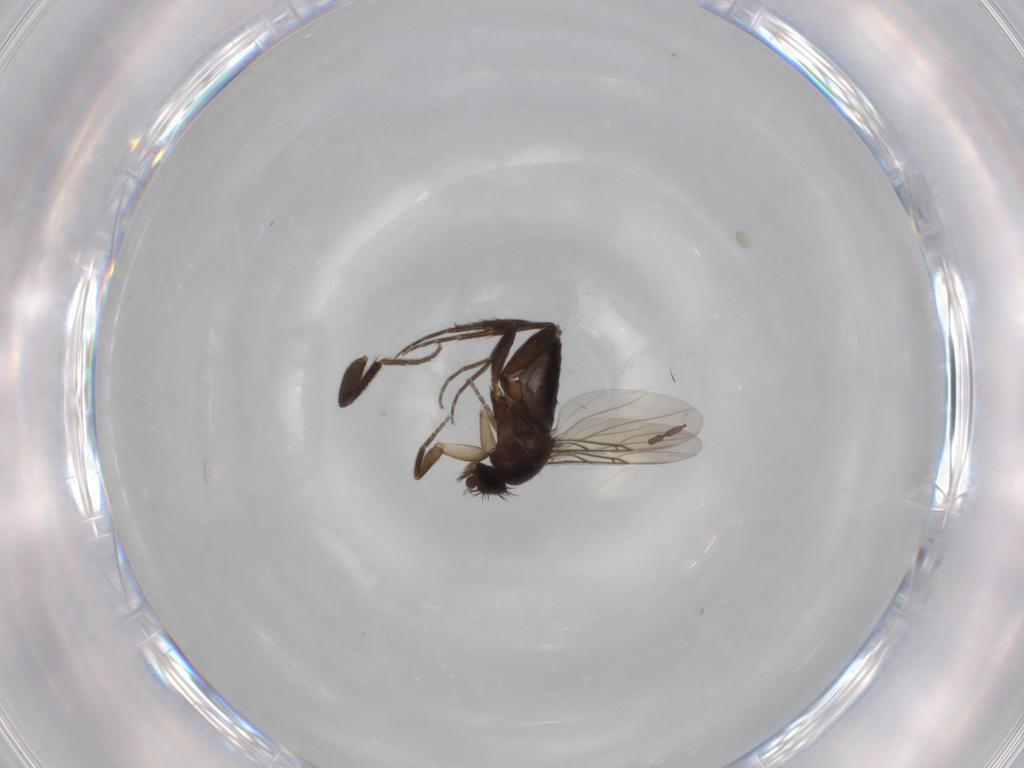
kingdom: Animalia
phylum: Arthropoda
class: Insecta
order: Diptera
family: Phoridae
